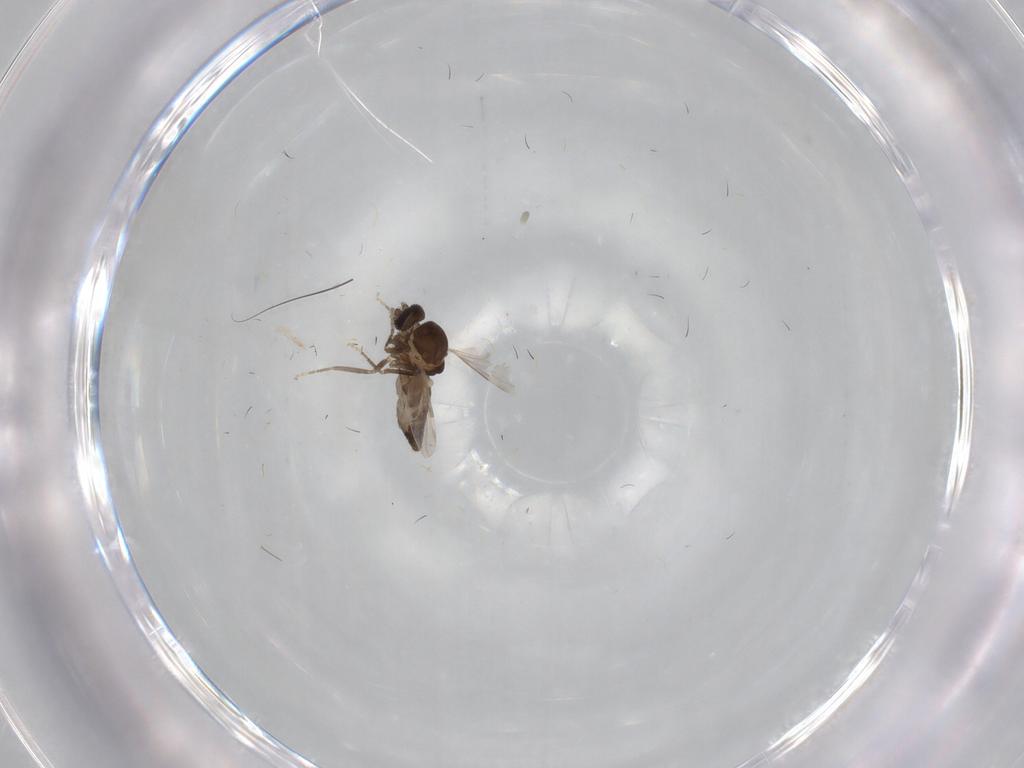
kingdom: Animalia
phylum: Arthropoda
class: Insecta
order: Diptera
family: Ceratopogonidae
